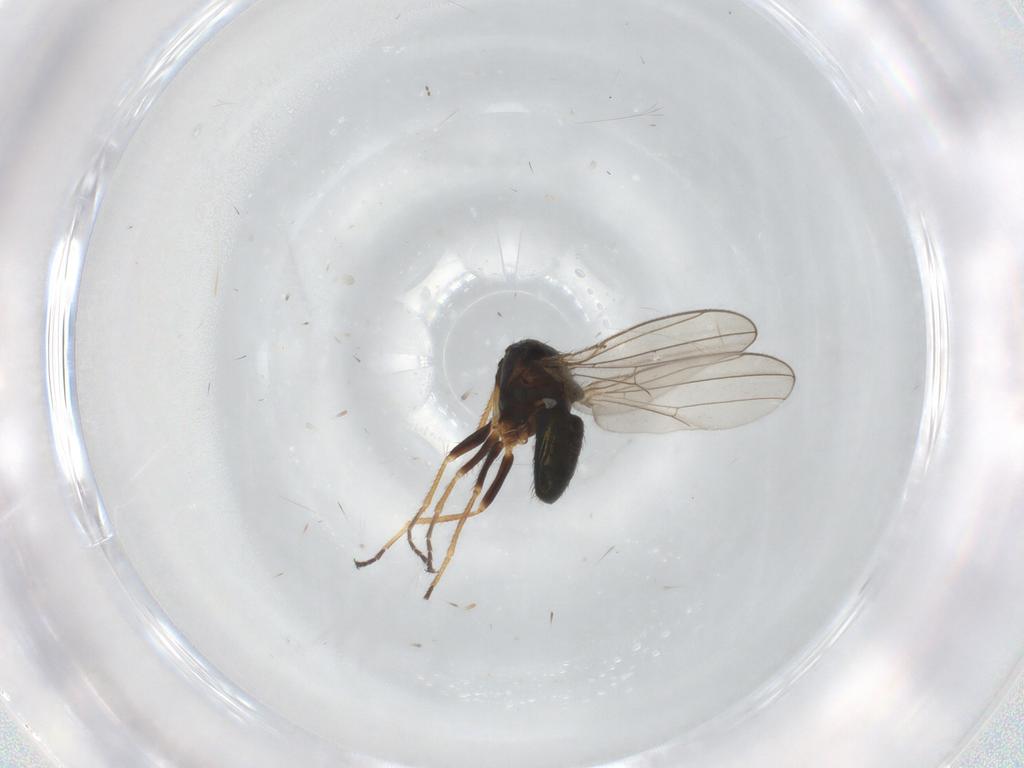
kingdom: Animalia
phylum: Arthropoda
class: Insecta
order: Diptera
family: Ephydridae
